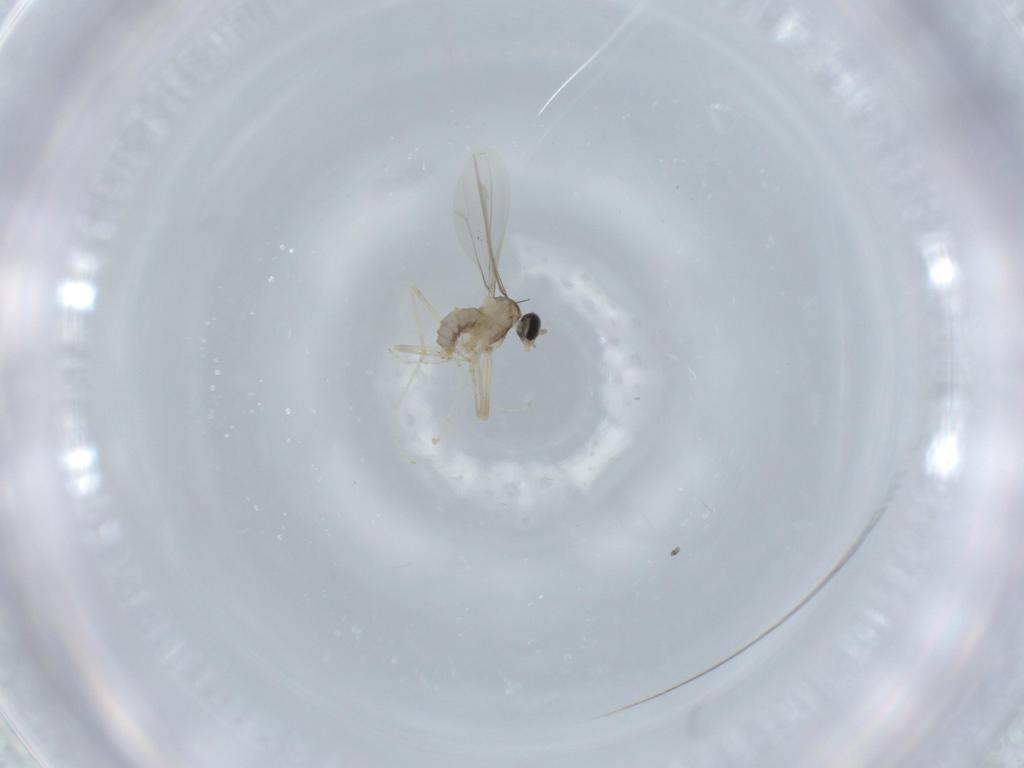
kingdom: Animalia
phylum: Arthropoda
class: Insecta
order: Diptera
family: Cecidomyiidae
